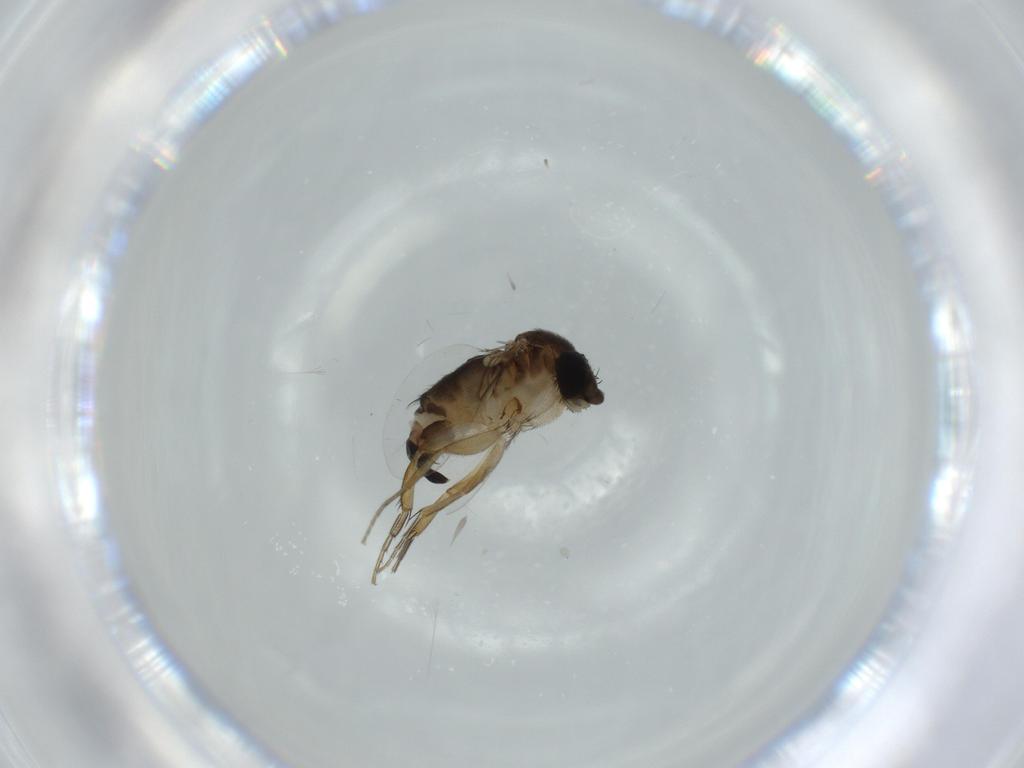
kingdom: Animalia
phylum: Arthropoda
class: Insecta
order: Diptera
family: Phoridae
